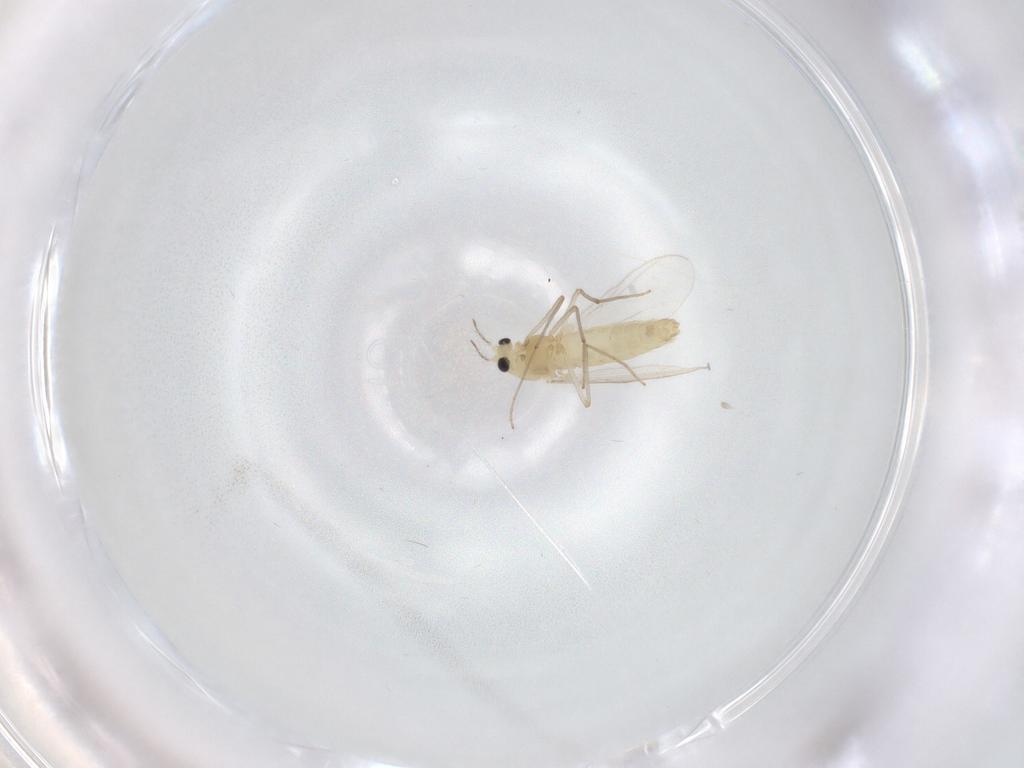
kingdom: Animalia
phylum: Arthropoda
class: Insecta
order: Diptera
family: Chironomidae
